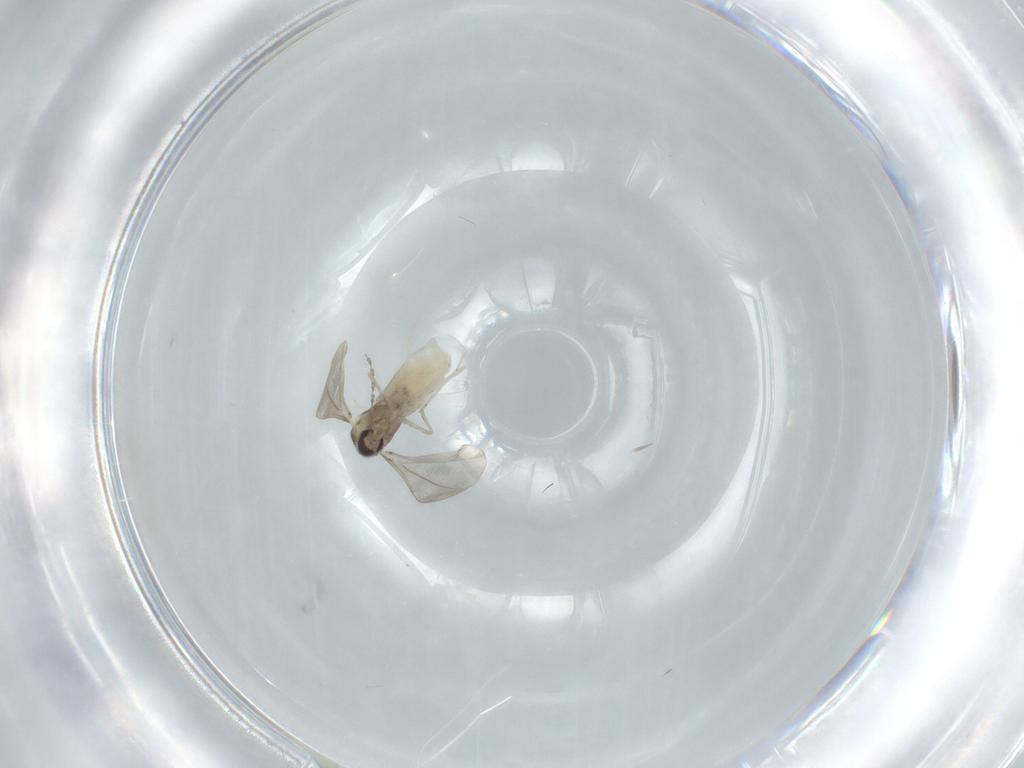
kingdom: Animalia
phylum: Arthropoda
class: Insecta
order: Diptera
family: Cecidomyiidae
